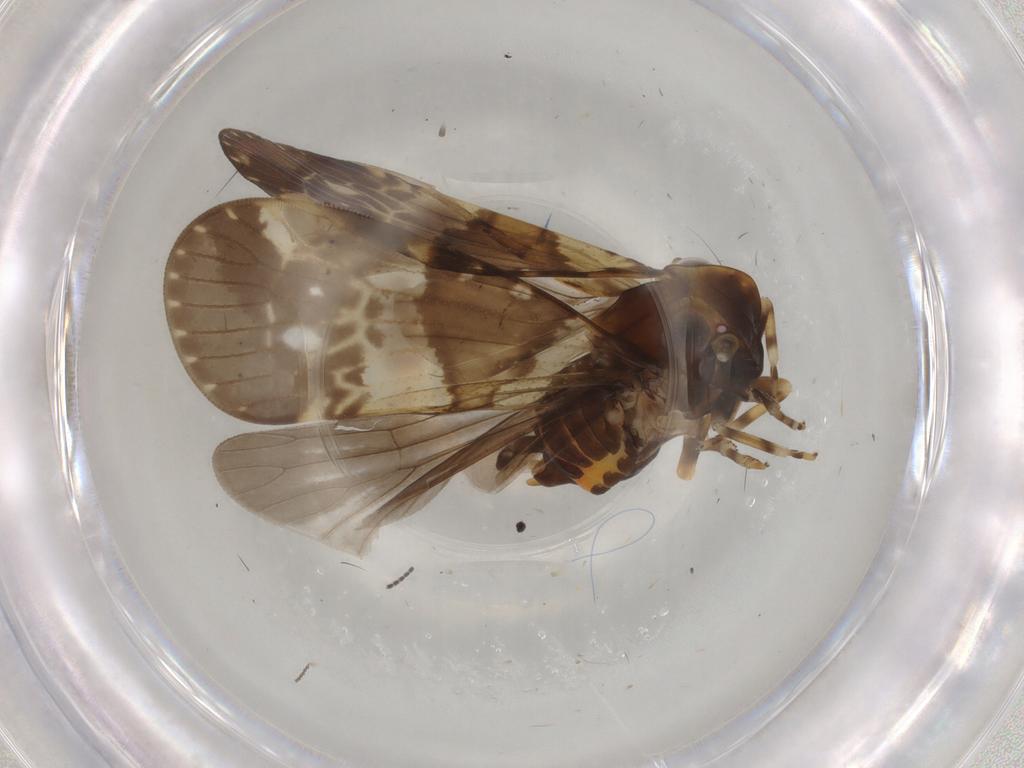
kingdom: Animalia
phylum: Arthropoda
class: Insecta
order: Hemiptera
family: Cixiidae
